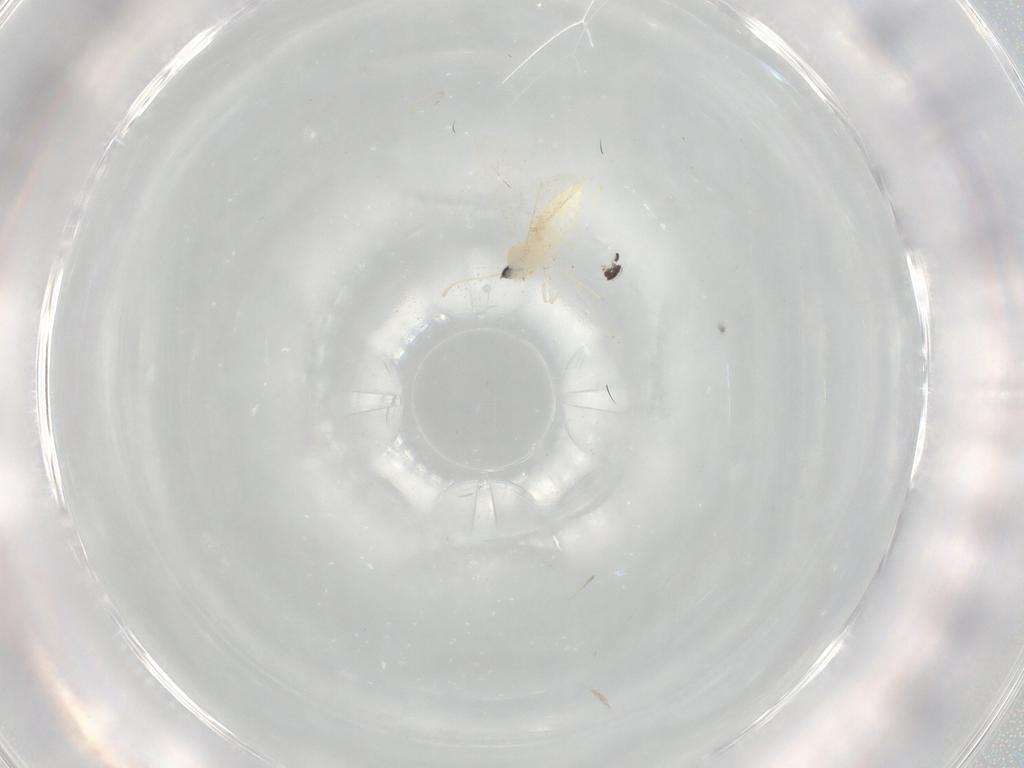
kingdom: Animalia
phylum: Arthropoda
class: Insecta
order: Diptera
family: Cecidomyiidae
